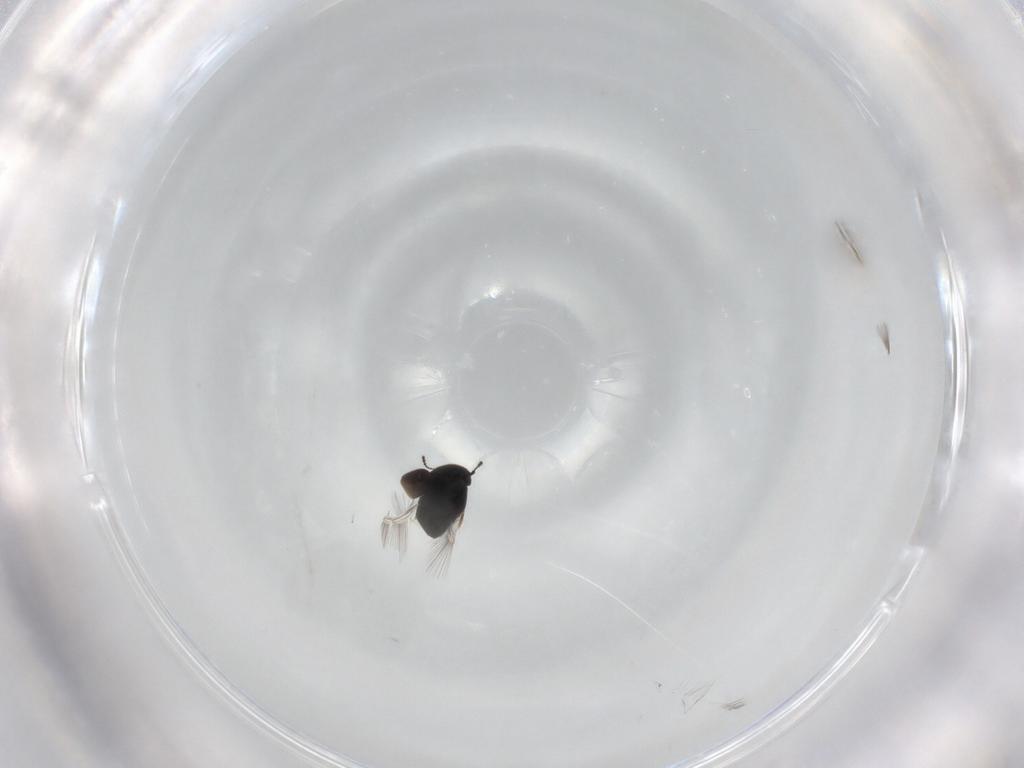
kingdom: Animalia
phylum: Arthropoda
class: Insecta
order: Coleoptera
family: Ptiliidae
